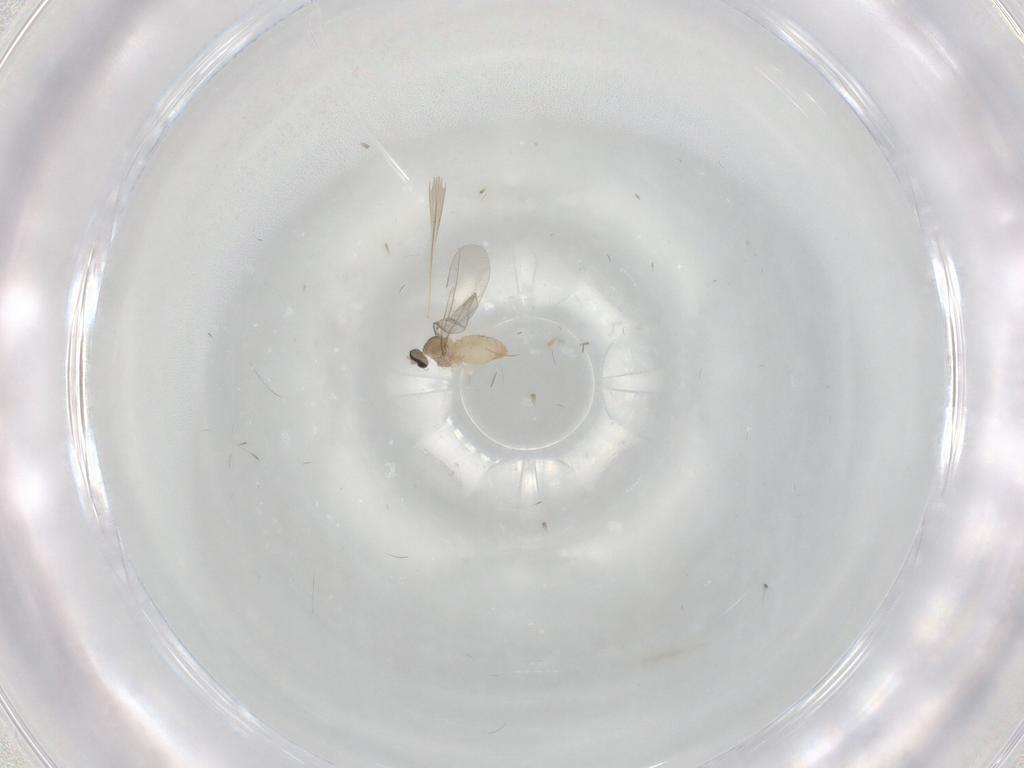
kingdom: Animalia
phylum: Arthropoda
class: Insecta
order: Diptera
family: Cecidomyiidae
